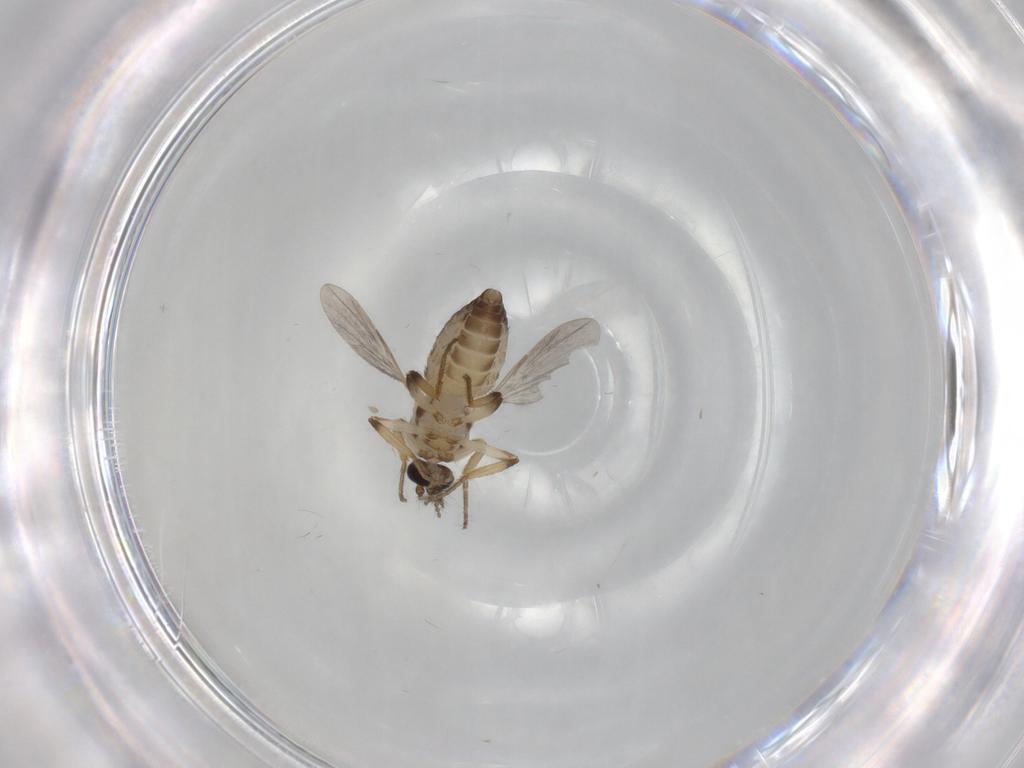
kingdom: Animalia
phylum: Arthropoda
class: Insecta
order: Diptera
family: Ceratopogonidae
